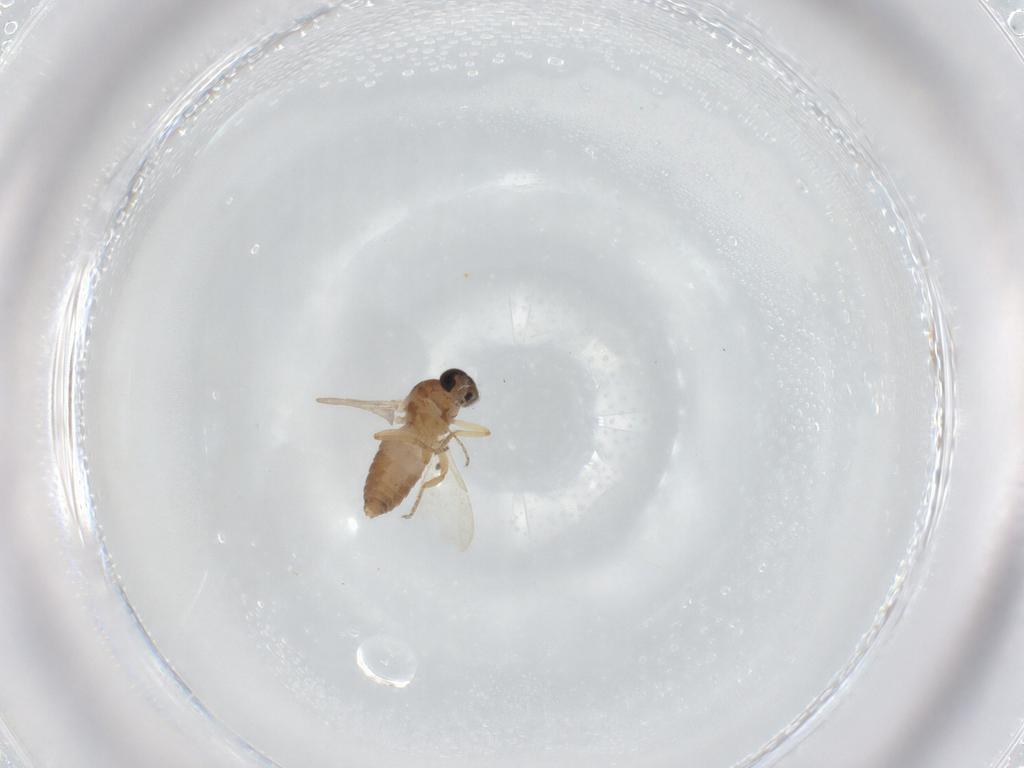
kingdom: Animalia
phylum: Arthropoda
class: Insecta
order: Diptera
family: Ceratopogonidae
